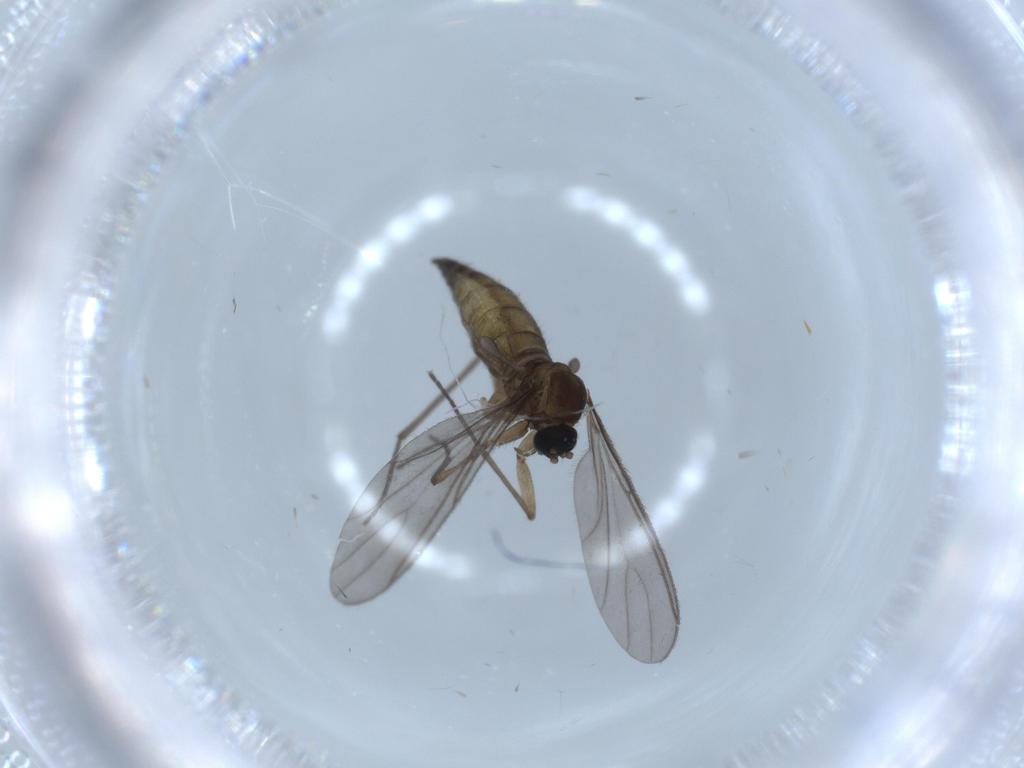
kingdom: Animalia
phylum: Arthropoda
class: Insecta
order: Diptera
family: Sciaridae
